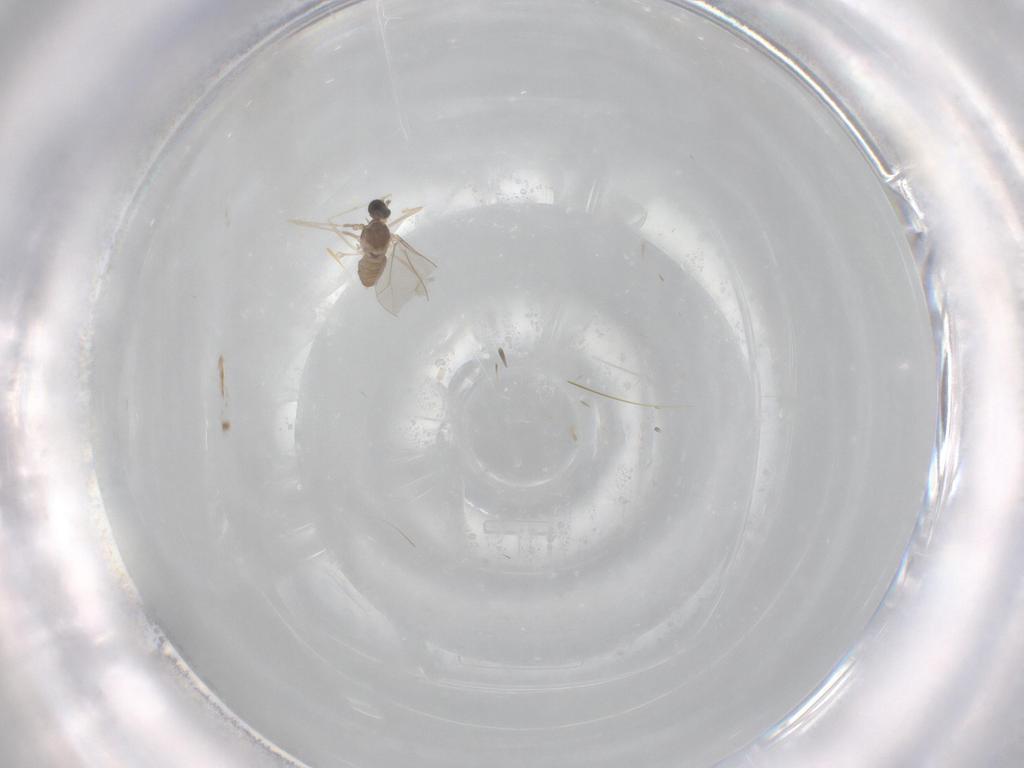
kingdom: Animalia
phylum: Arthropoda
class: Insecta
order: Diptera
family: Cecidomyiidae
